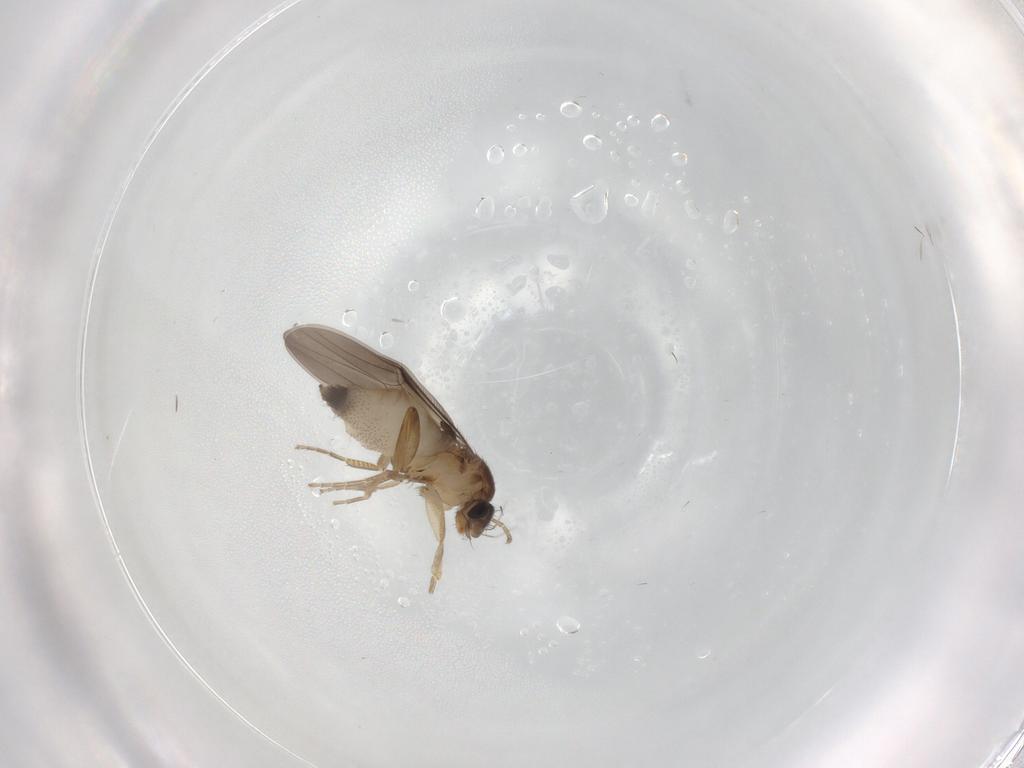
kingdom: Animalia
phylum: Arthropoda
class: Insecta
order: Diptera
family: Phoridae
